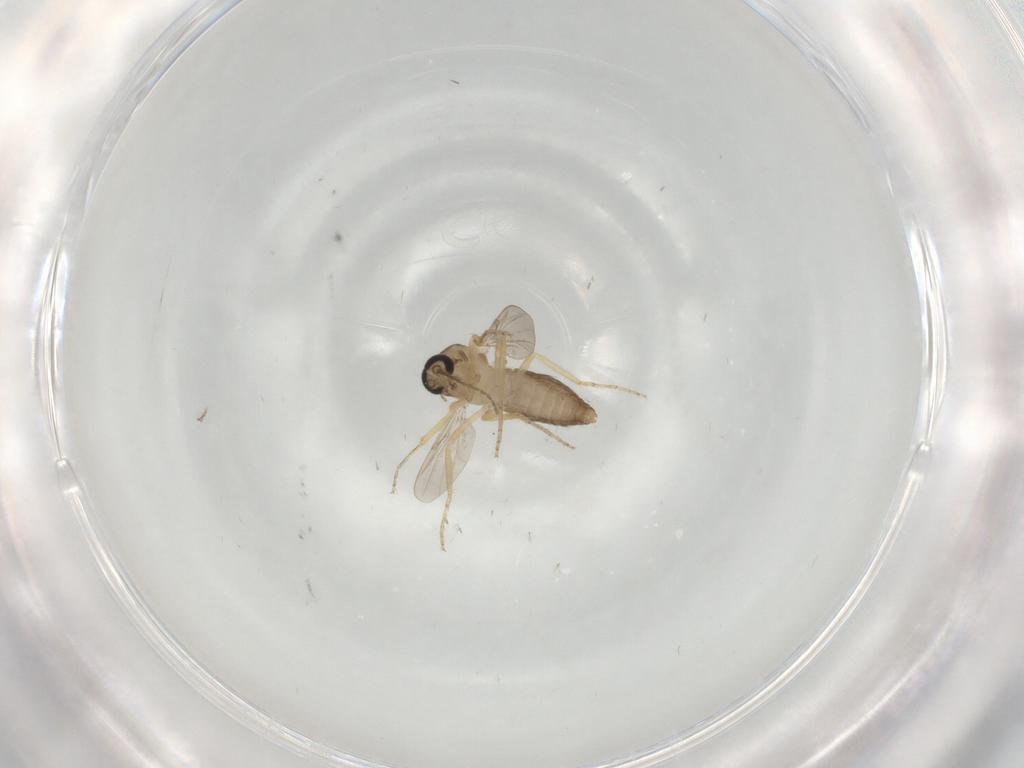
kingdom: Animalia
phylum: Arthropoda
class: Insecta
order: Diptera
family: Ceratopogonidae
